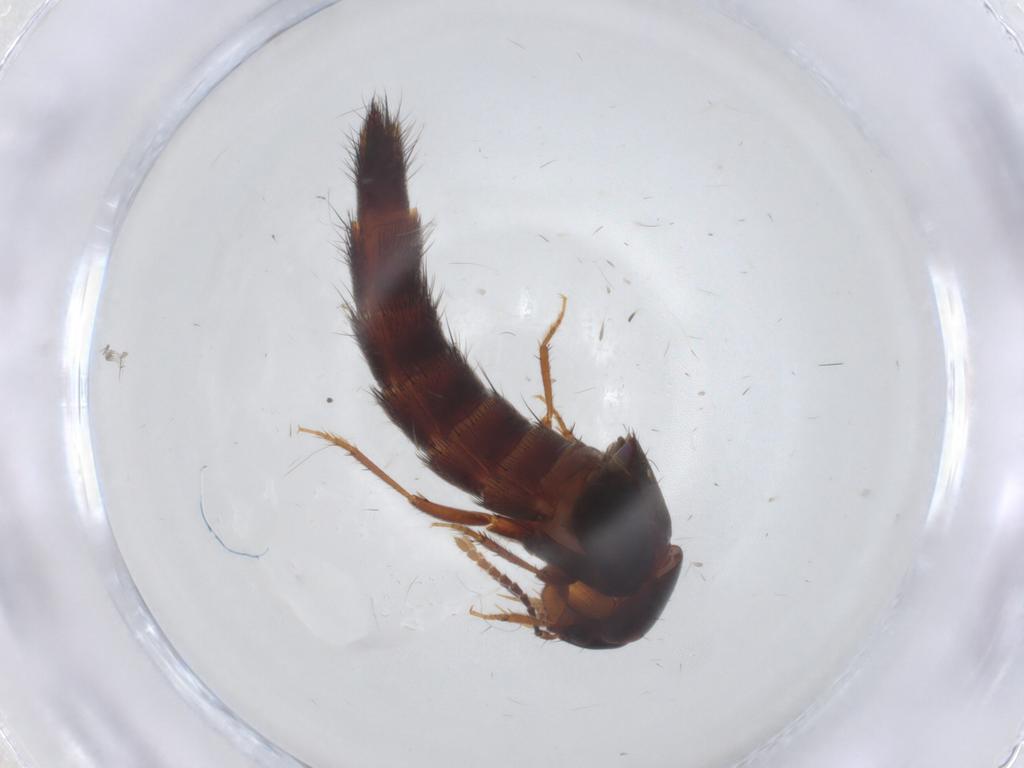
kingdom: Animalia
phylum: Arthropoda
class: Insecta
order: Coleoptera
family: Staphylinidae
